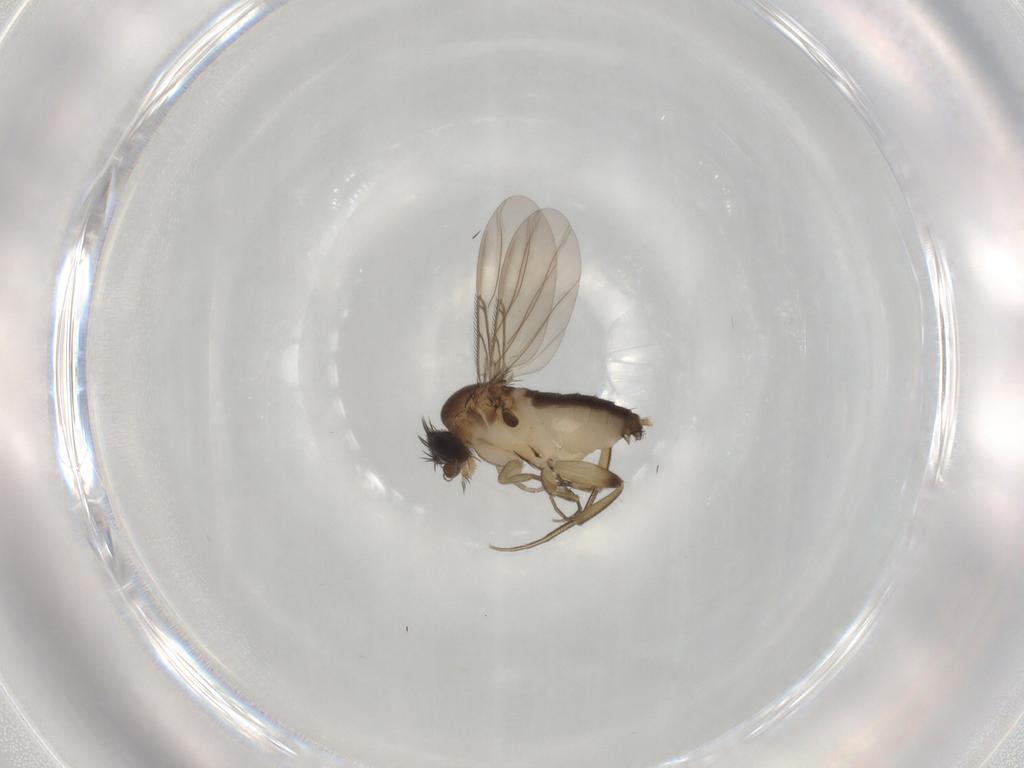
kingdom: Animalia
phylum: Arthropoda
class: Insecta
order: Diptera
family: Phoridae
